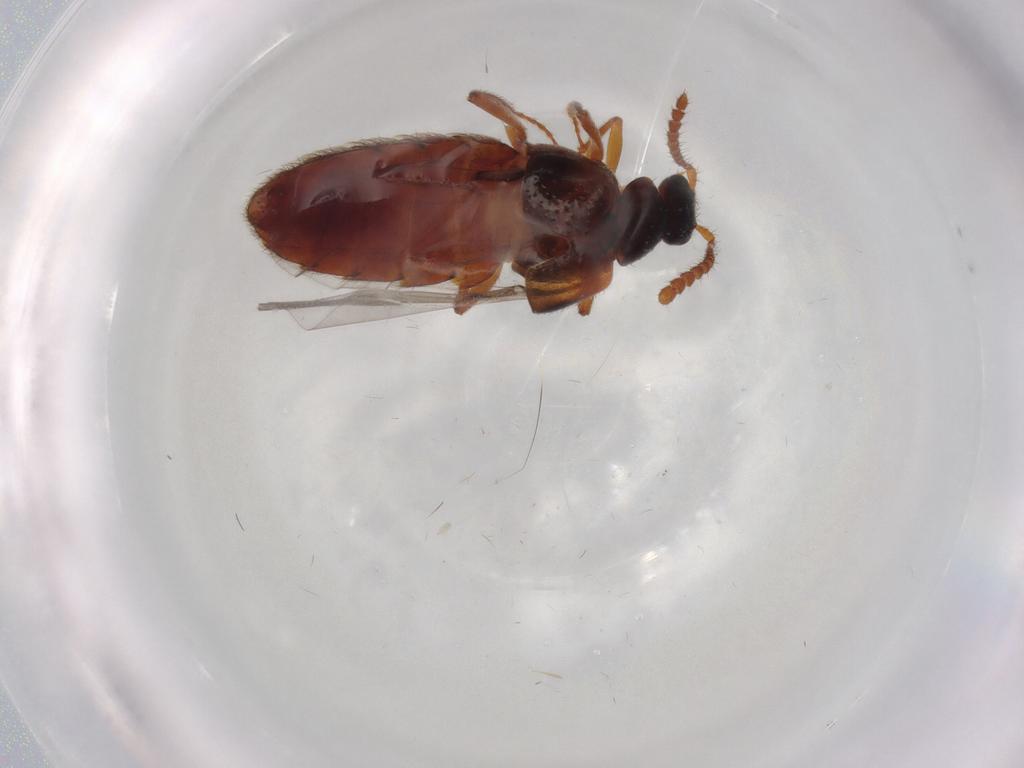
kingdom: Animalia
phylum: Arthropoda
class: Insecta
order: Coleoptera
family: Staphylinidae
